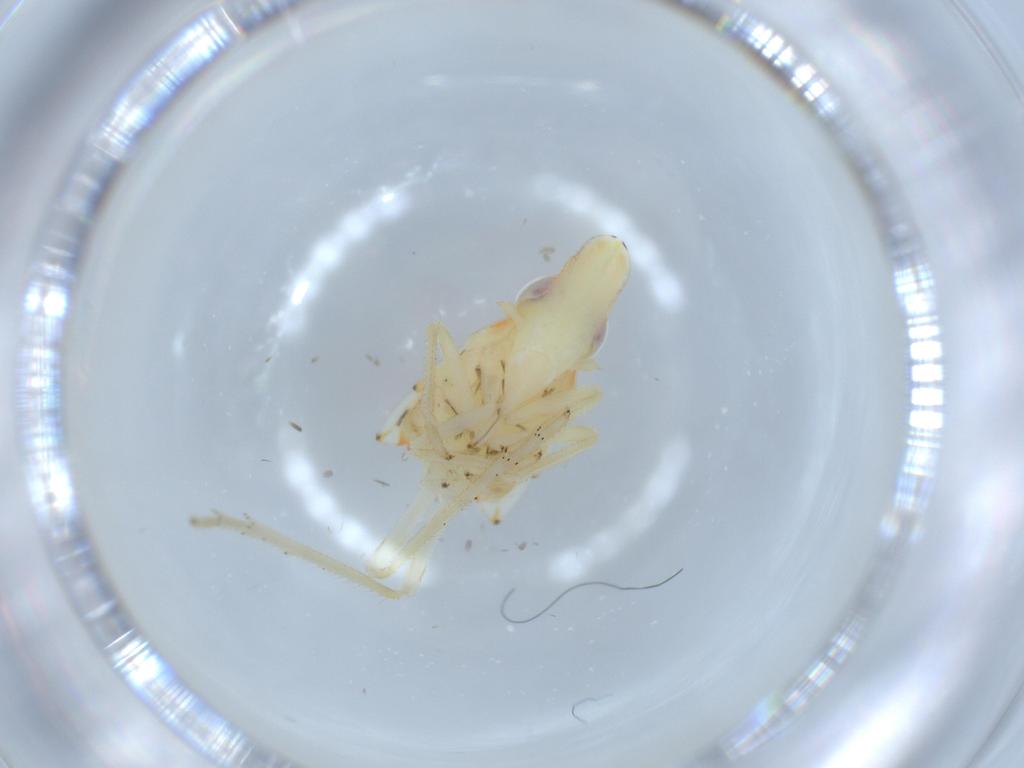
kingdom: Animalia
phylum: Arthropoda
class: Insecta
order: Hemiptera
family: Tropiduchidae
